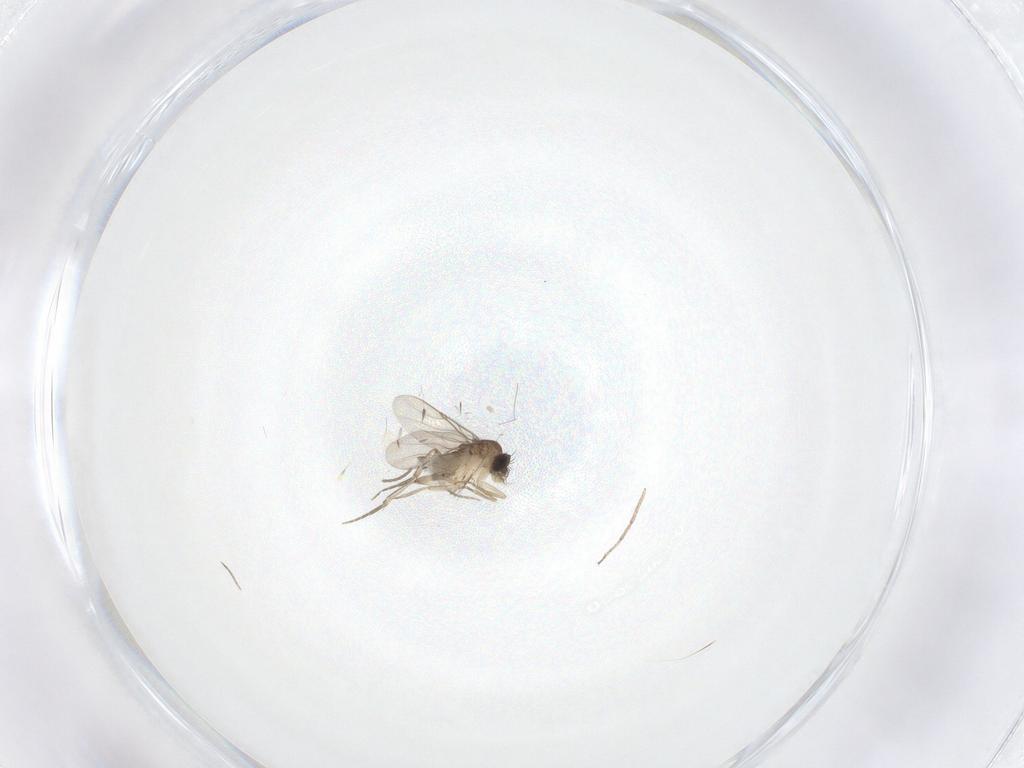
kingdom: Animalia
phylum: Arthropoda
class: Insecta
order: Diptera
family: Phoridae
